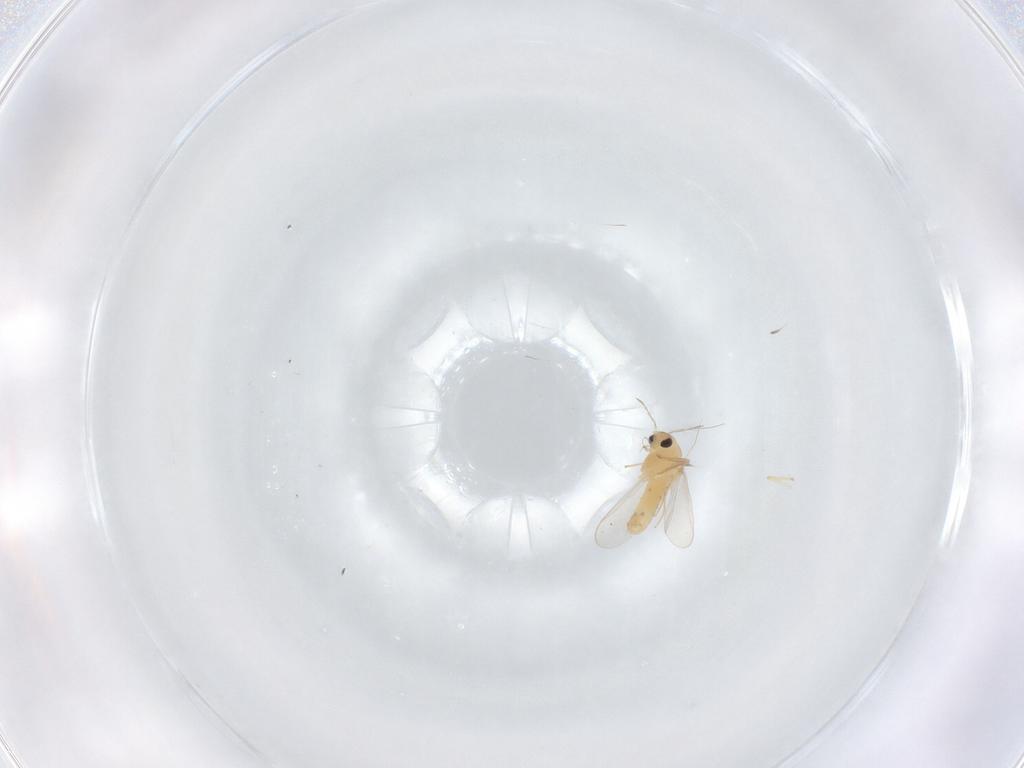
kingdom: Animalia
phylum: Arthropoda
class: Insecta
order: Diptera
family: Chironomidae
